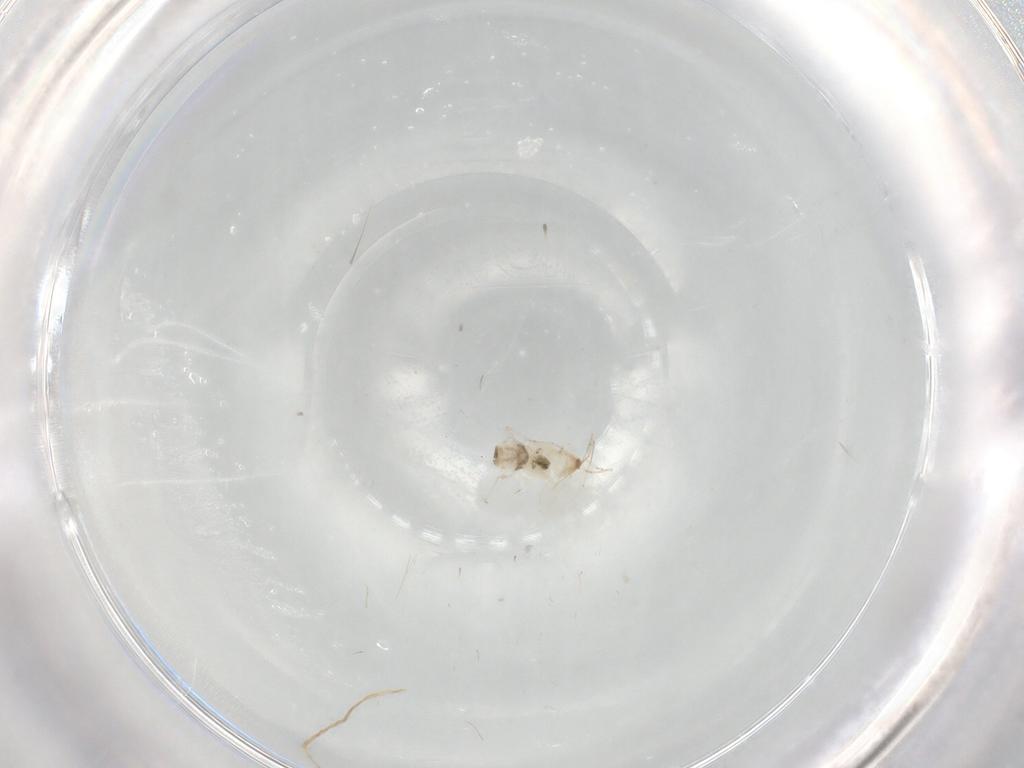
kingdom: Animalia
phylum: Arthropoda
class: Insecta
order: Diptera
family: Cecidomyiidae
